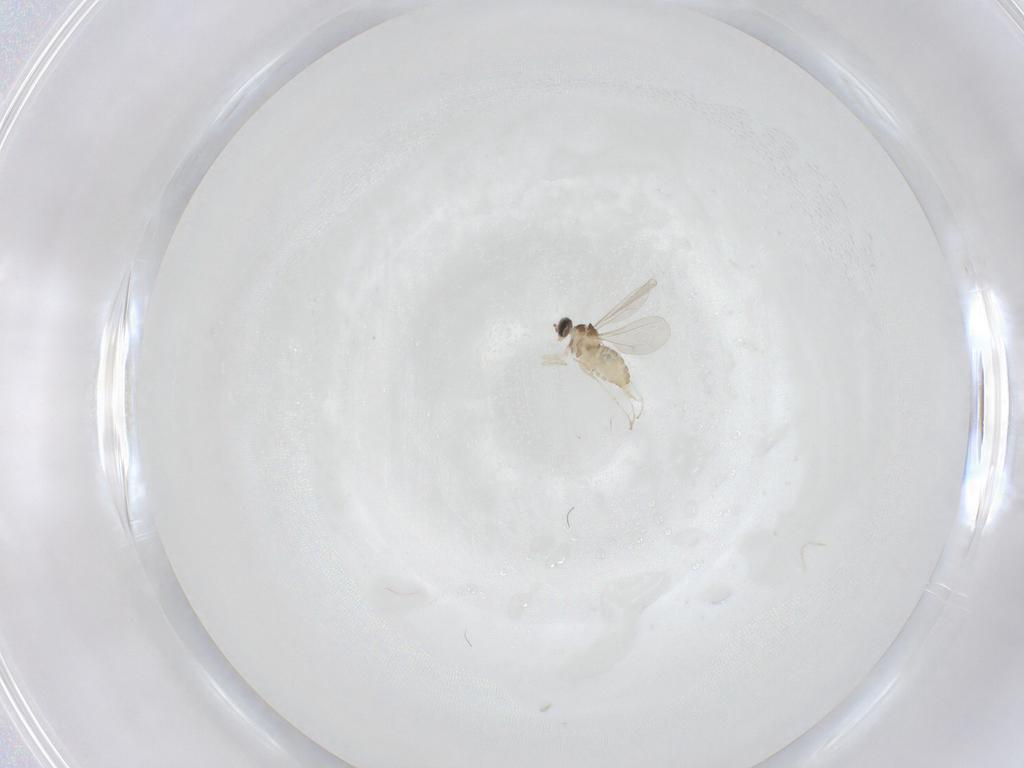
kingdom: Animalia
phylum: Arthropoda
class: Insecta
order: Diptera
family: Cecidomyiidae
